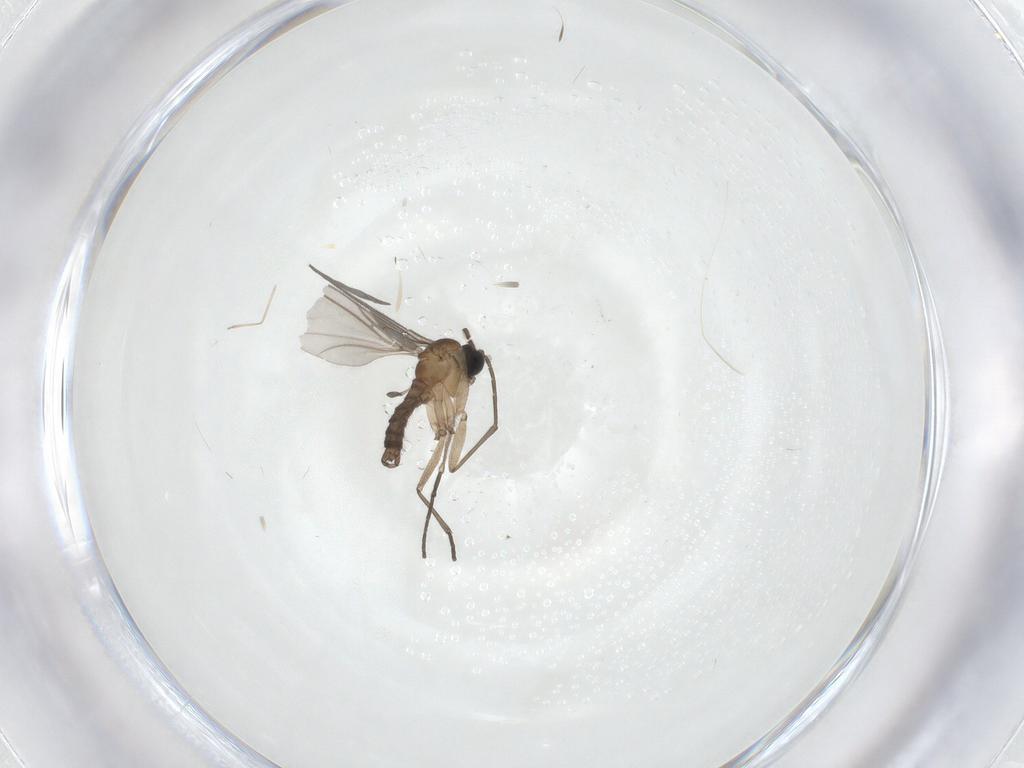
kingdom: Animalia
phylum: Arthropoda
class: Insecta
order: Diptera
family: Sciaridae
